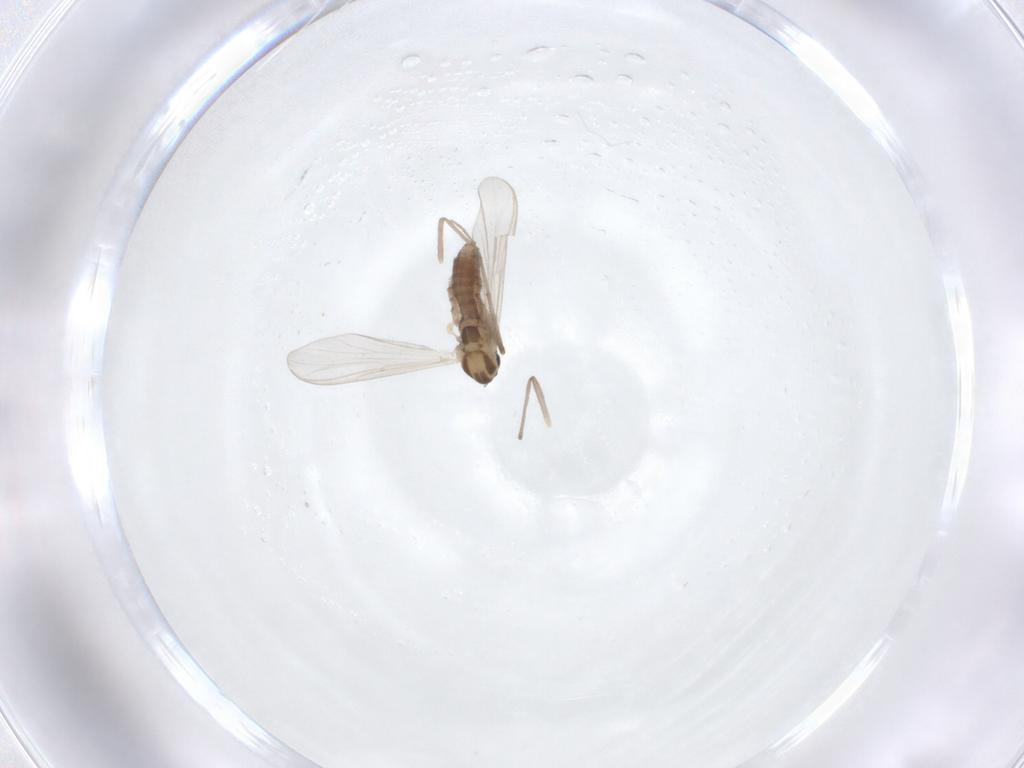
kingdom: Animalia
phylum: Arthropoda
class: Insecta
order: Diptera
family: Chironomidae
